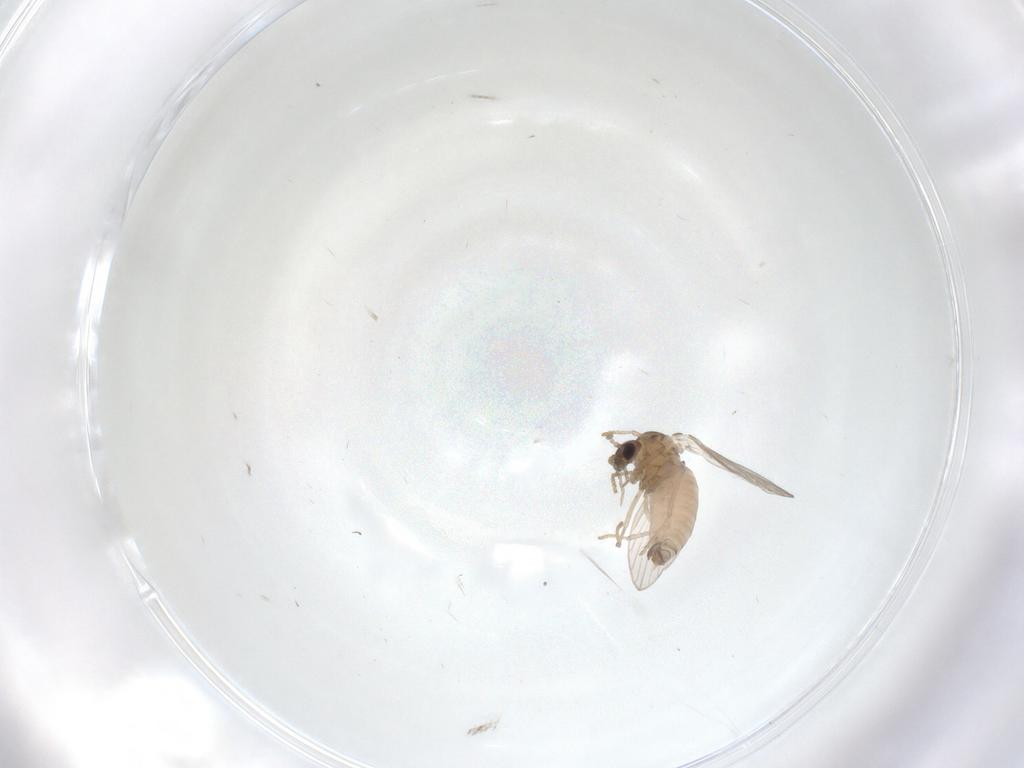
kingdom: Animalia
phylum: Arthropoda
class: Insecta
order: Diptera
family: Psychodidae
